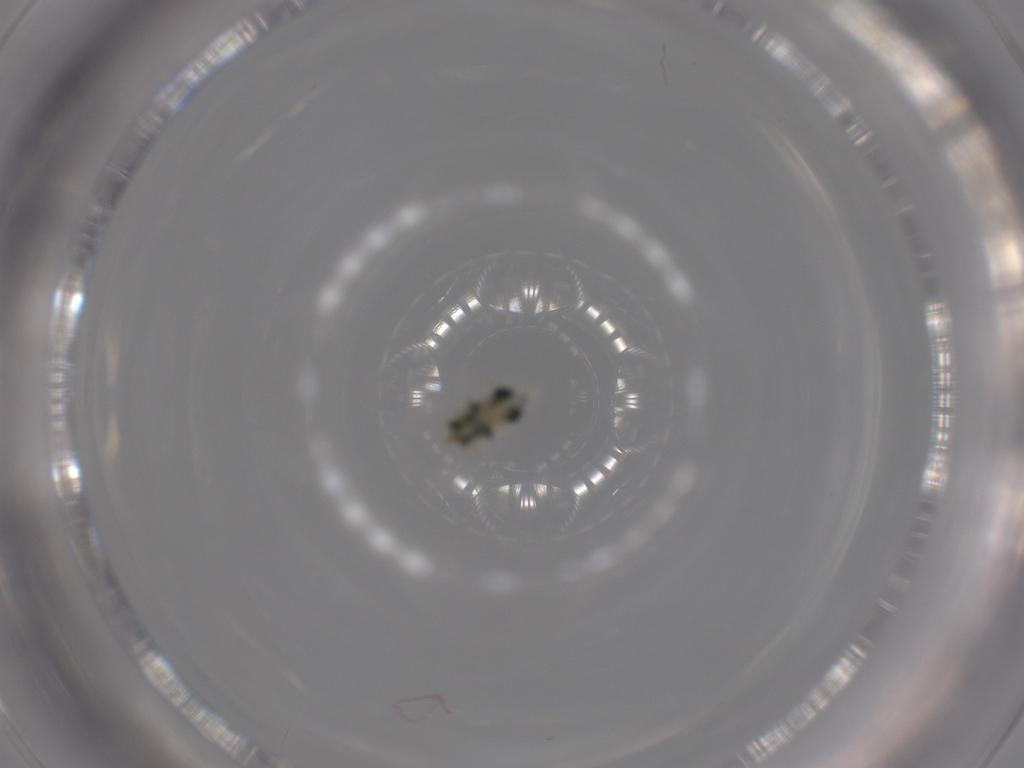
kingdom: Animalia
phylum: Arthropoda
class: Insecta
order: Neuroptera
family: Coniopterygidae
